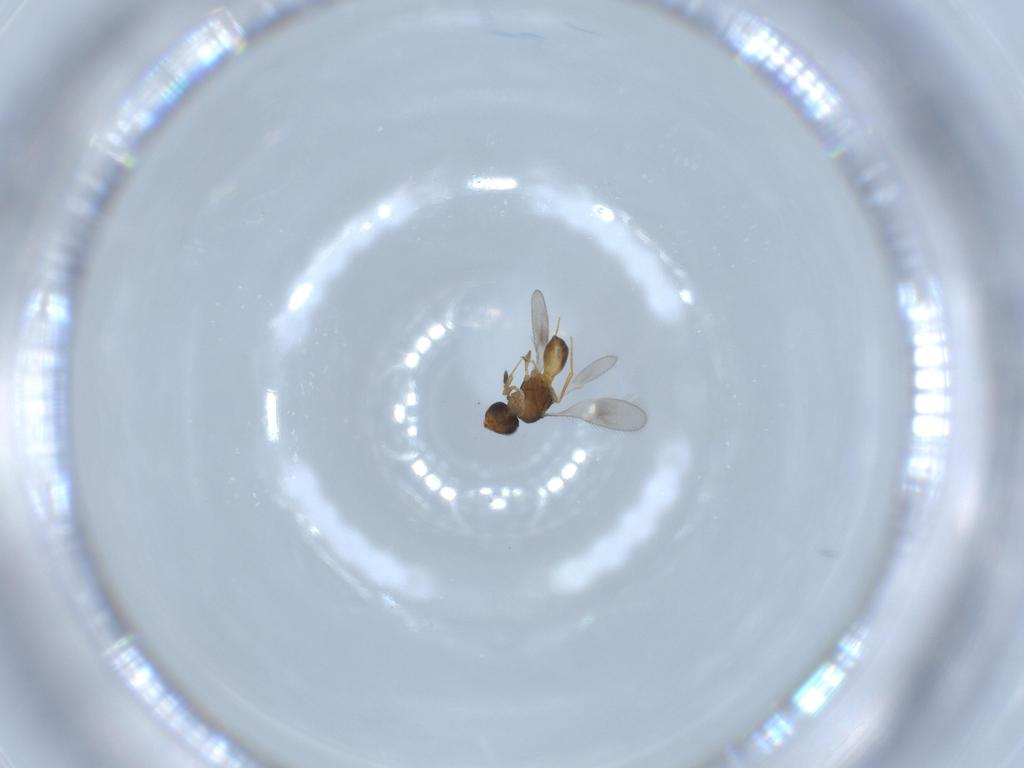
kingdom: Animalia
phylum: Arthropoda
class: Insecta
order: Hymenoptera
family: Scelionidae
